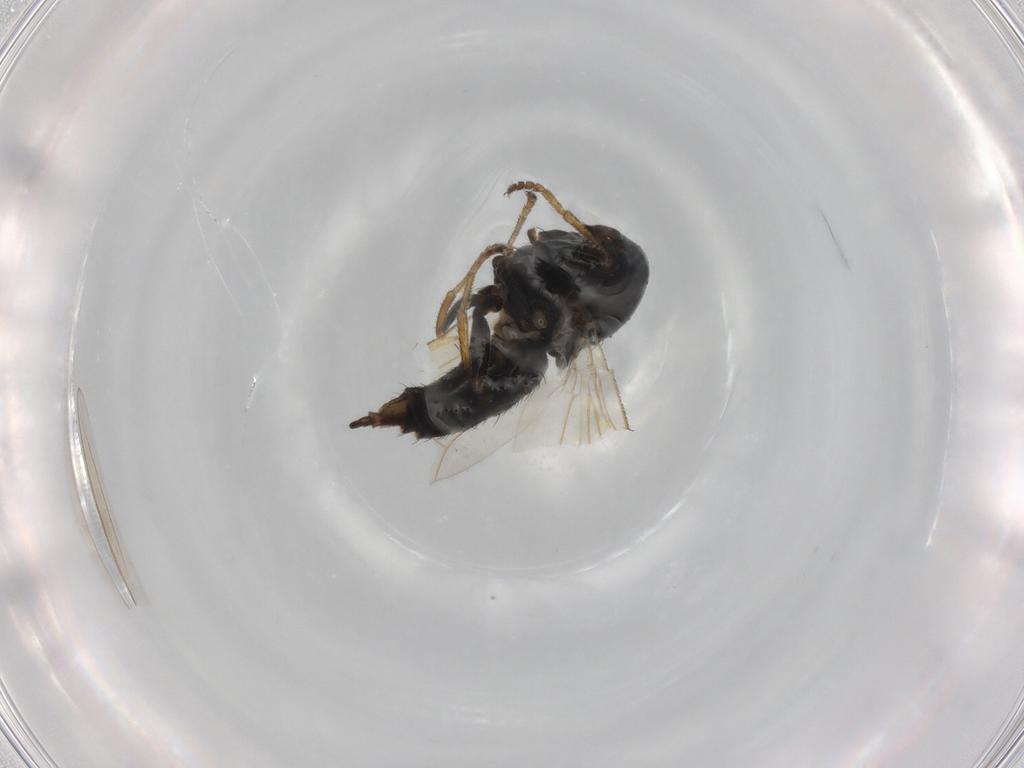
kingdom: Animalia
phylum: Arthropoda
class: Insecta
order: Diptera
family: Chamaemyiidae
